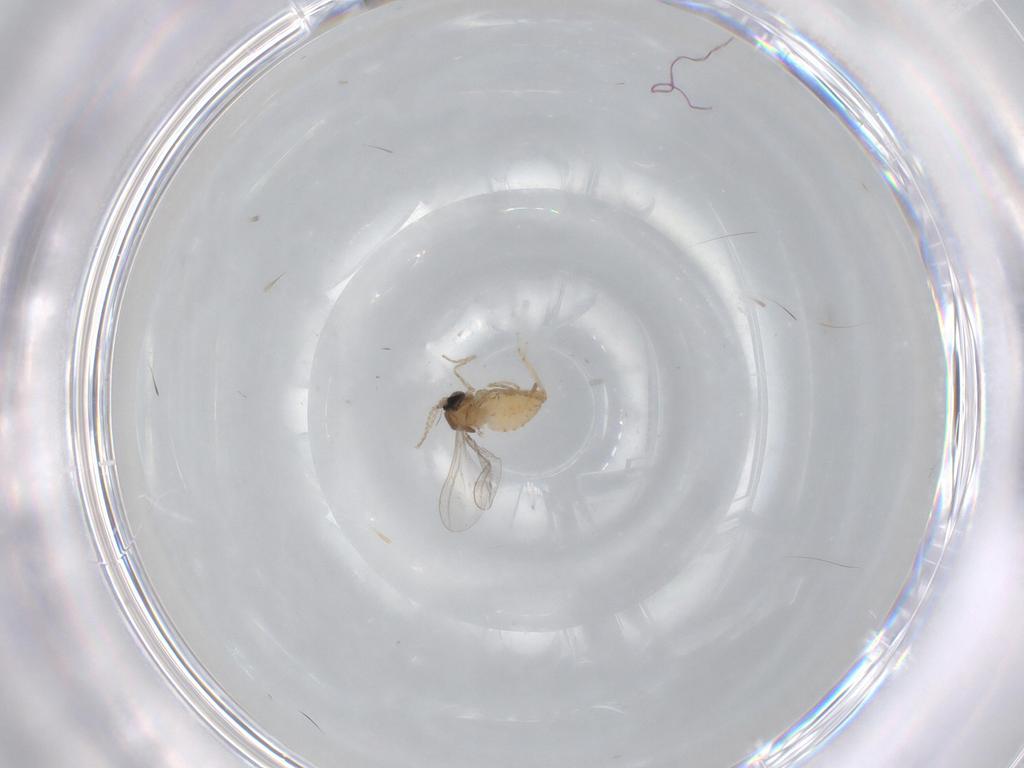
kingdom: Animalia
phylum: Arthropoda
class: Insecta
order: Diptera
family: Cecidomyiidae
